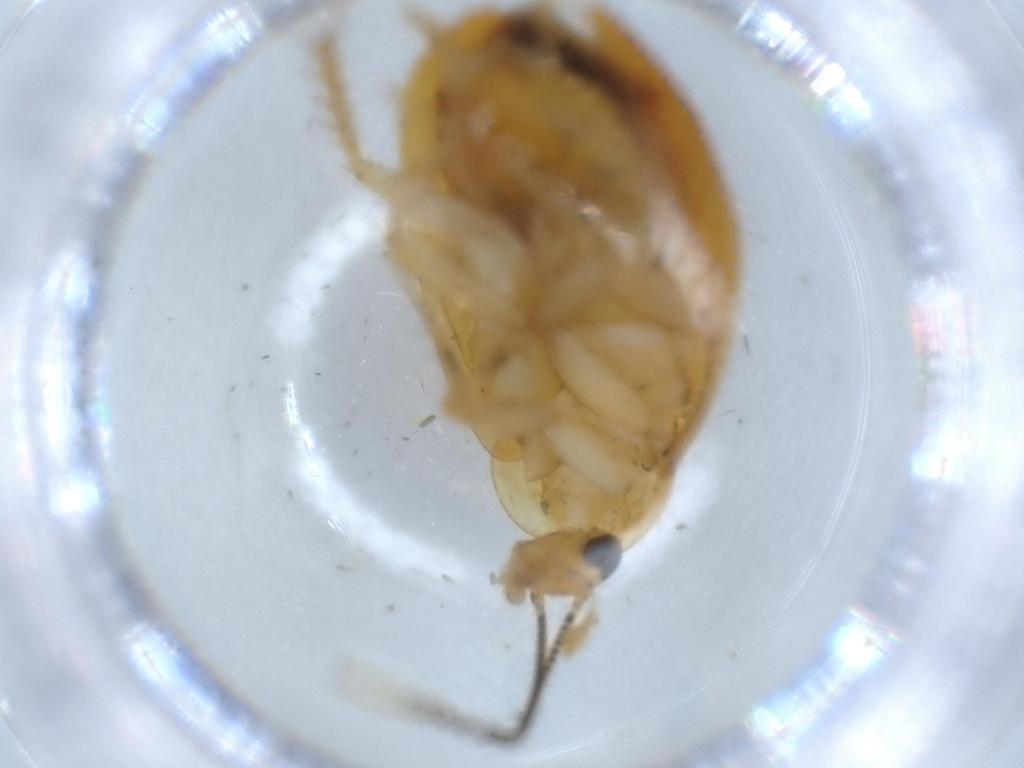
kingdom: Animalia
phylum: Arthropoda
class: Insecta
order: Coleoptera
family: Throscidae
